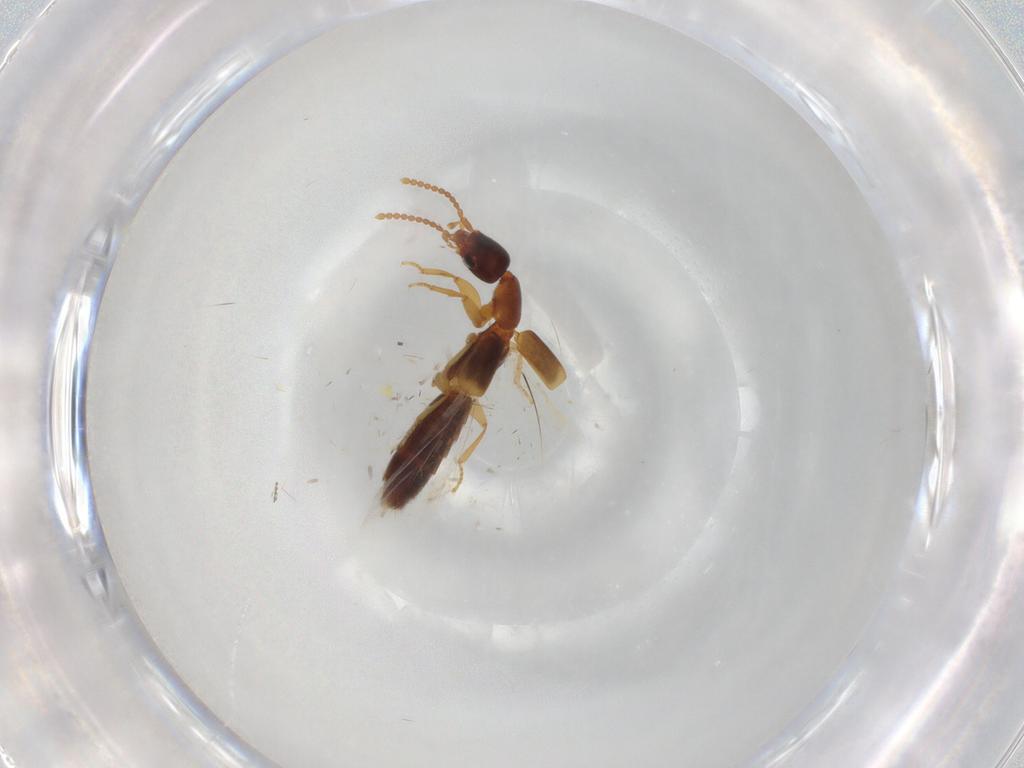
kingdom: Animalia
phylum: Arthropoda
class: Insecta
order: Coleoptera
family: Staphylinidae
